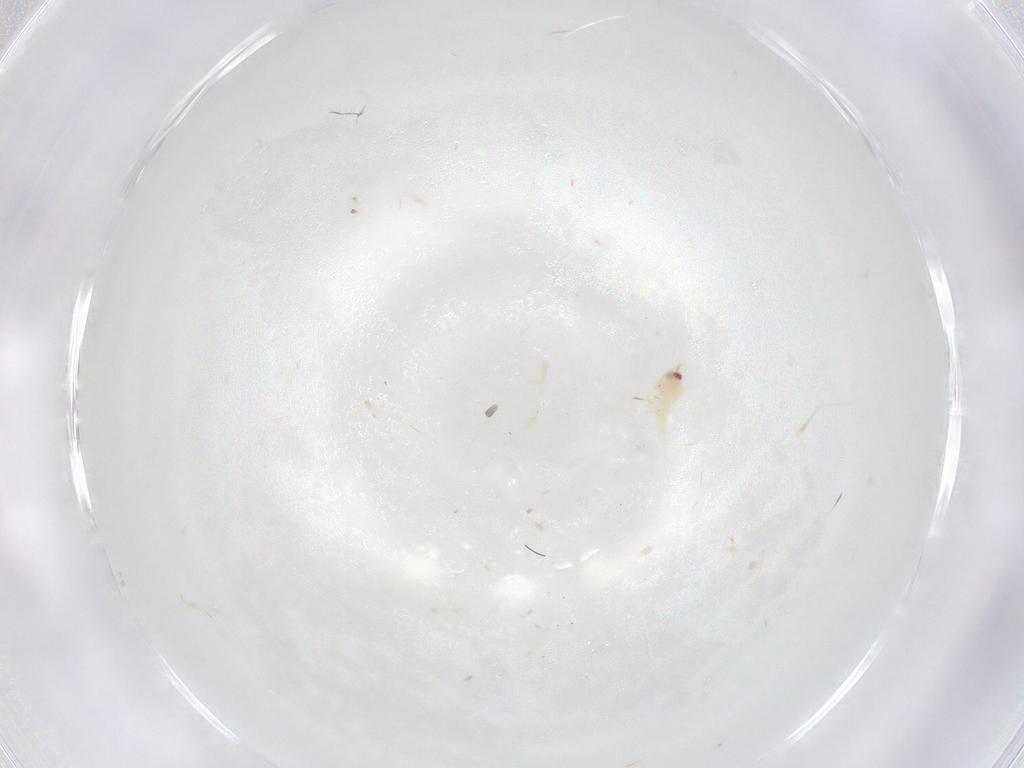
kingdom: Animalia
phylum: Arthropoda
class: Insecta
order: Hemiptera
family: Aleyrodidae
